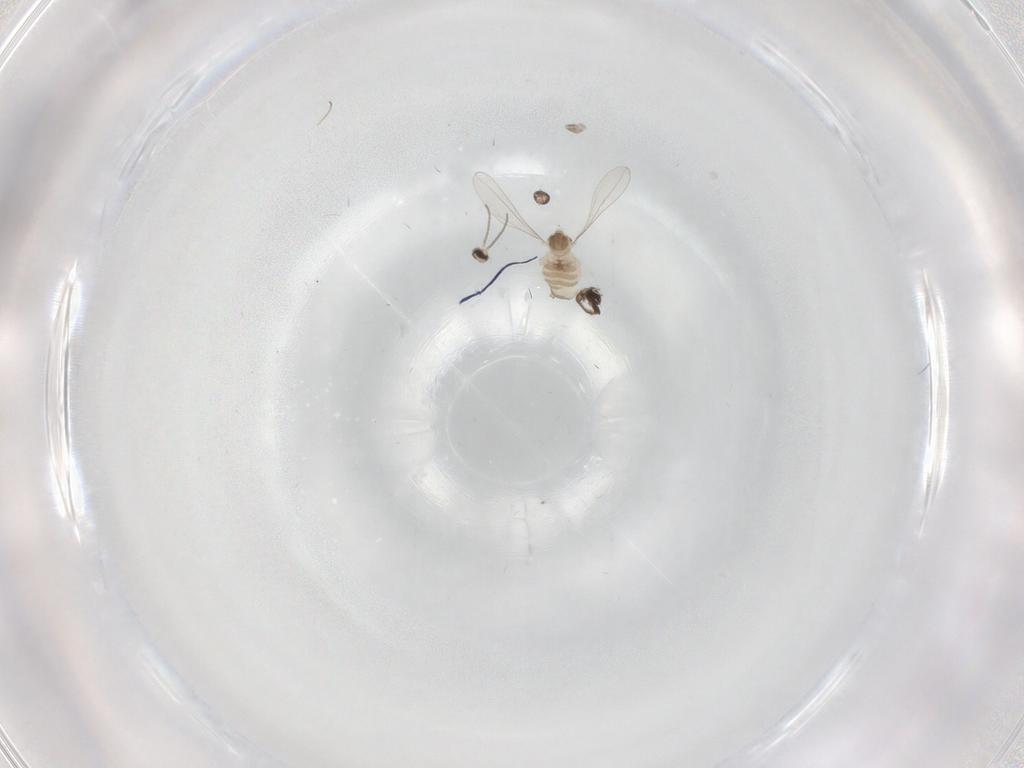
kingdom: Animalia
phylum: Arthropoda
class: Insecta
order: Diptera
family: Cecidomyiidae
